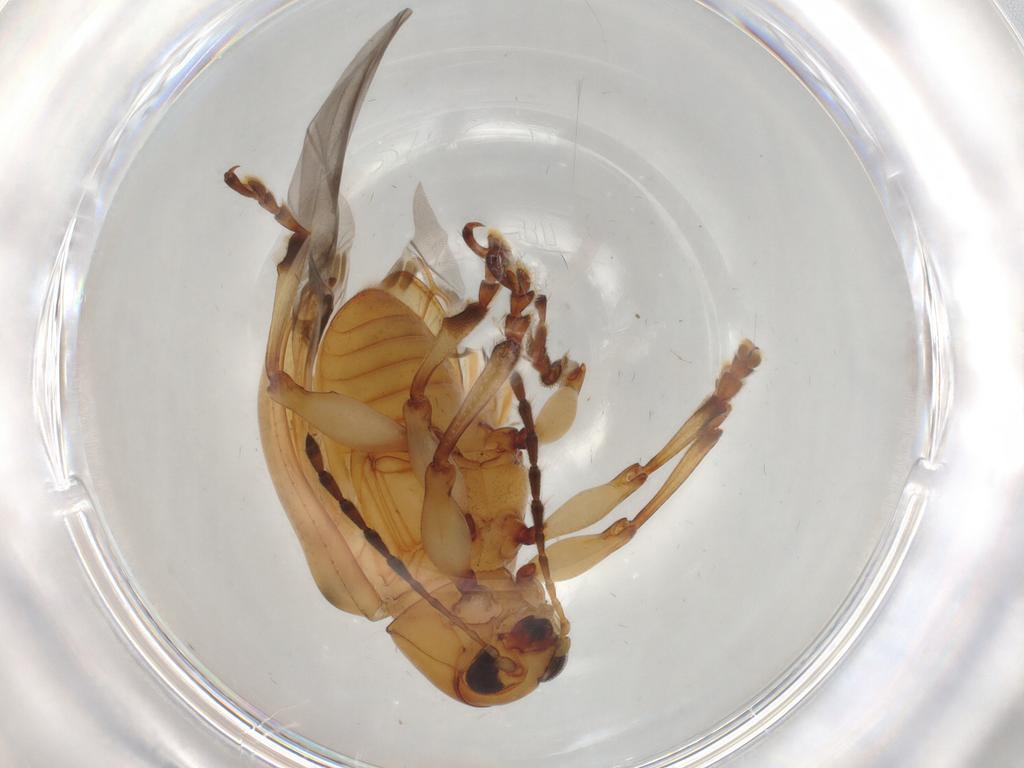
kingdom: Animalia
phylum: Arthropoda
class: Insecta
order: Coleoptera
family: Chrysomelidae
